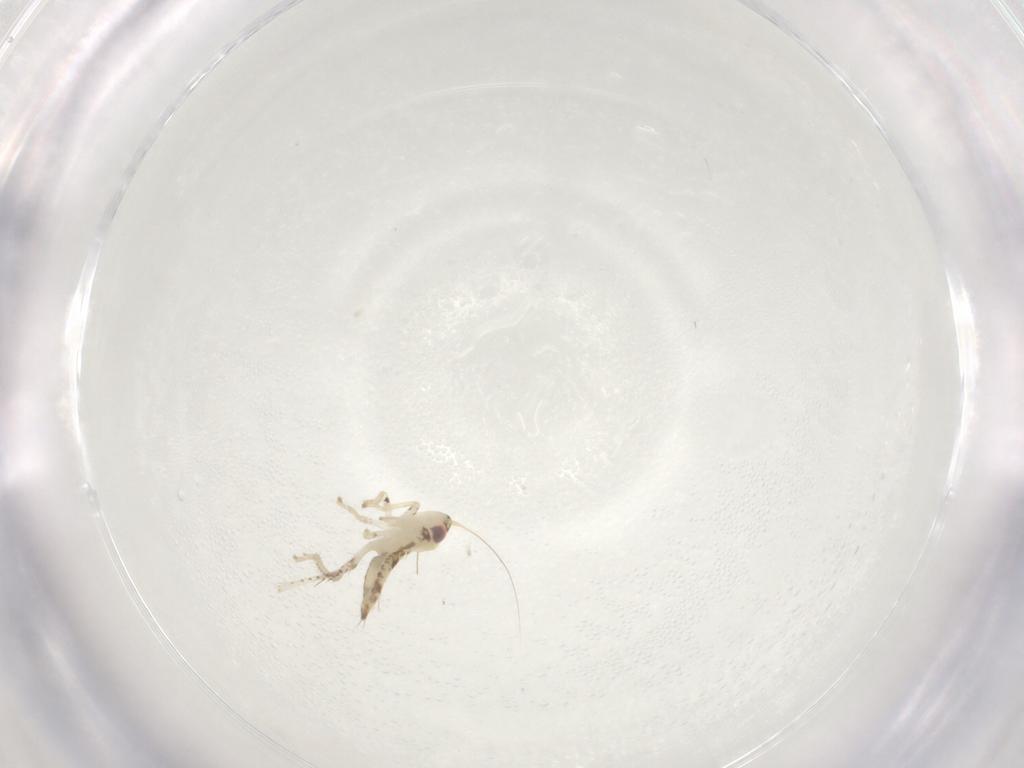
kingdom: Animalia
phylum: Arthropoda
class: Insecta
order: Hemiptera
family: Cicadellidae
